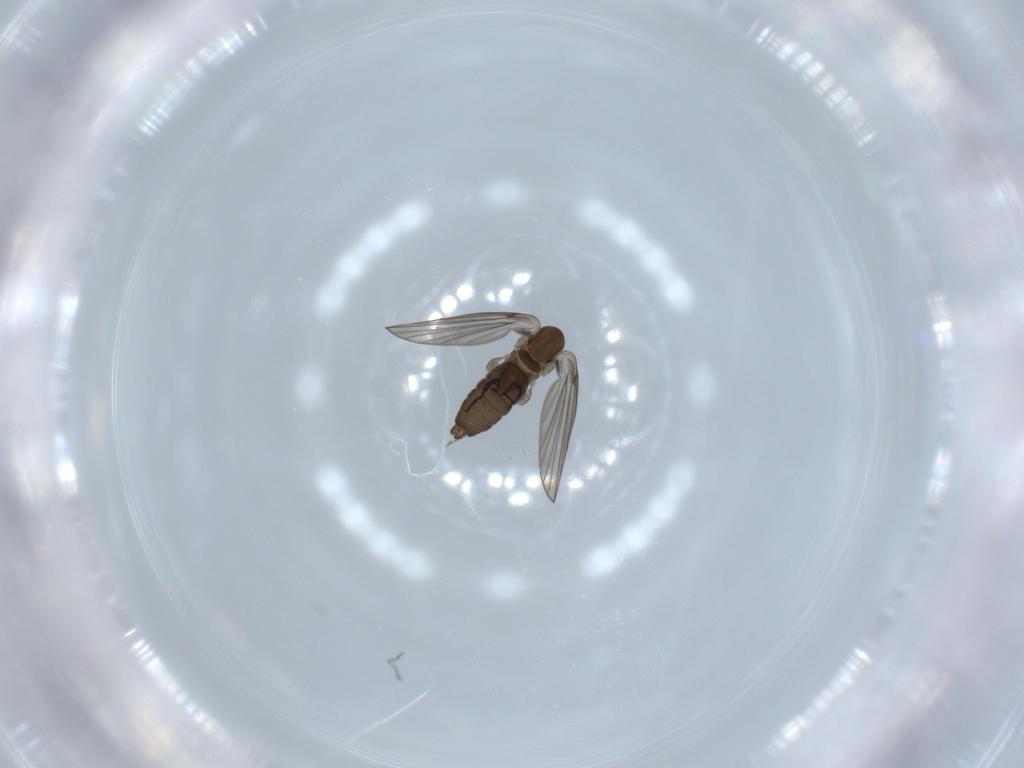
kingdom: Animalia
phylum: Arthropoda
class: Insecta
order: Diptera
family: Psychodidae
